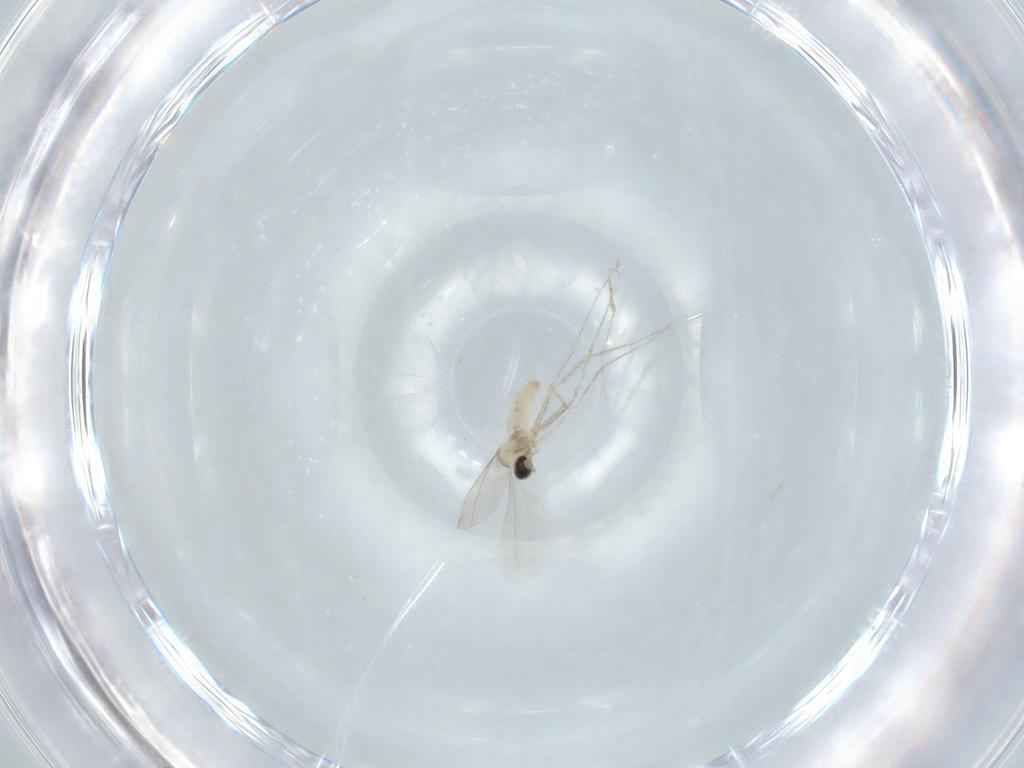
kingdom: Animalia
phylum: Arthropoda
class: Insecta
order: Diptera
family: Cecidomyiidae
